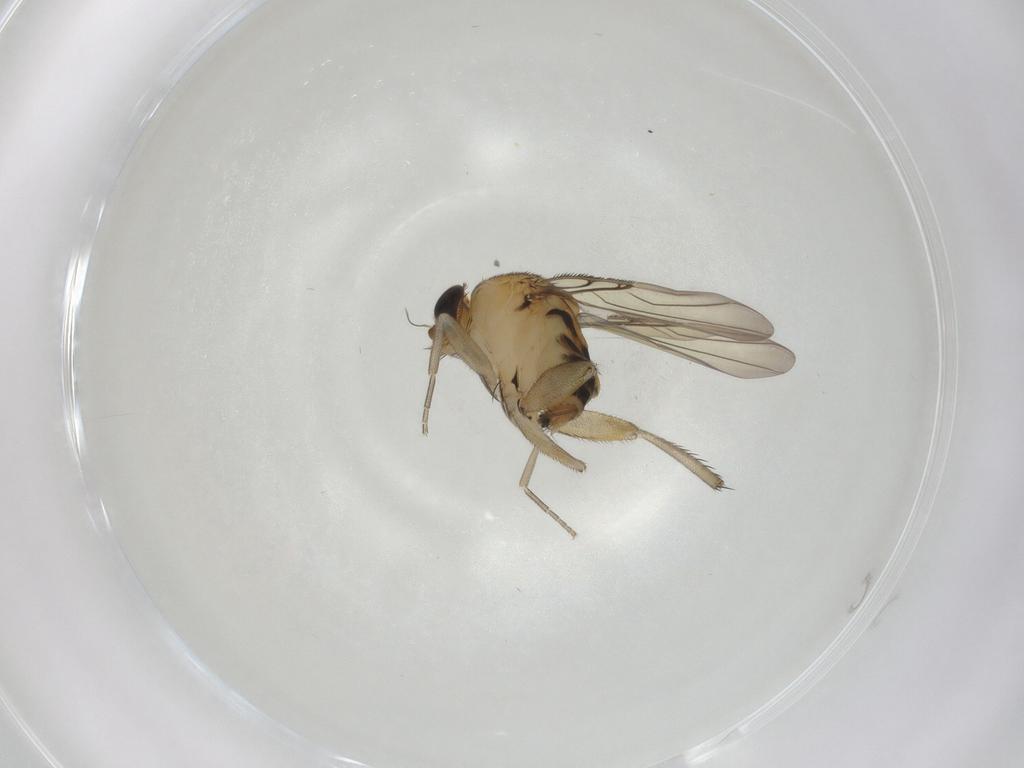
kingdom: Animalia
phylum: Arthropoda
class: Insecta
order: Diptera
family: Phoridae
